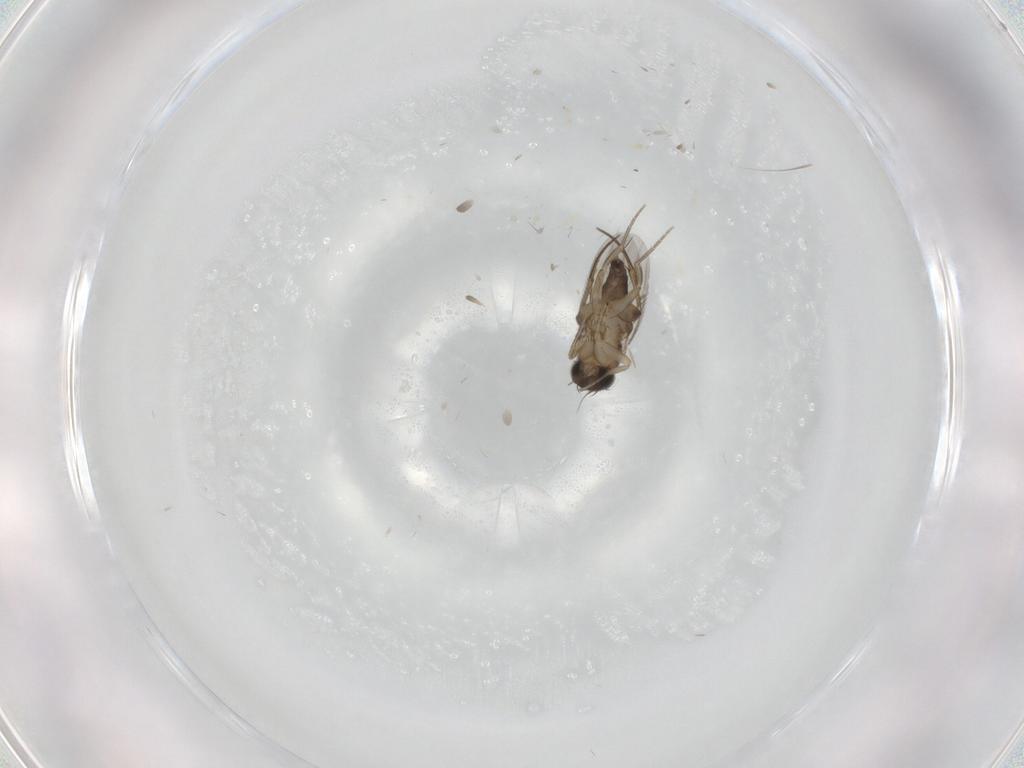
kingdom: Animalia
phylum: Arthropoda
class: Insecta
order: Diptera
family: Phoridae
